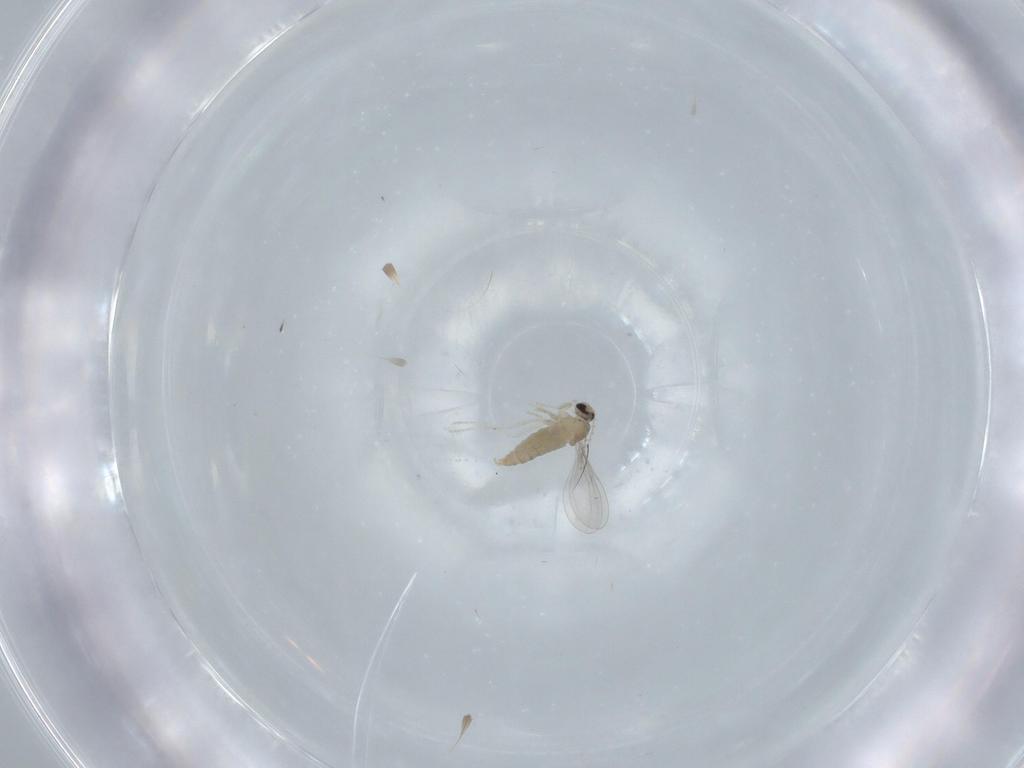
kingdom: Animalia
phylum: Arthropoda
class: Insecta
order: Diptera
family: Cecidomyiidae
